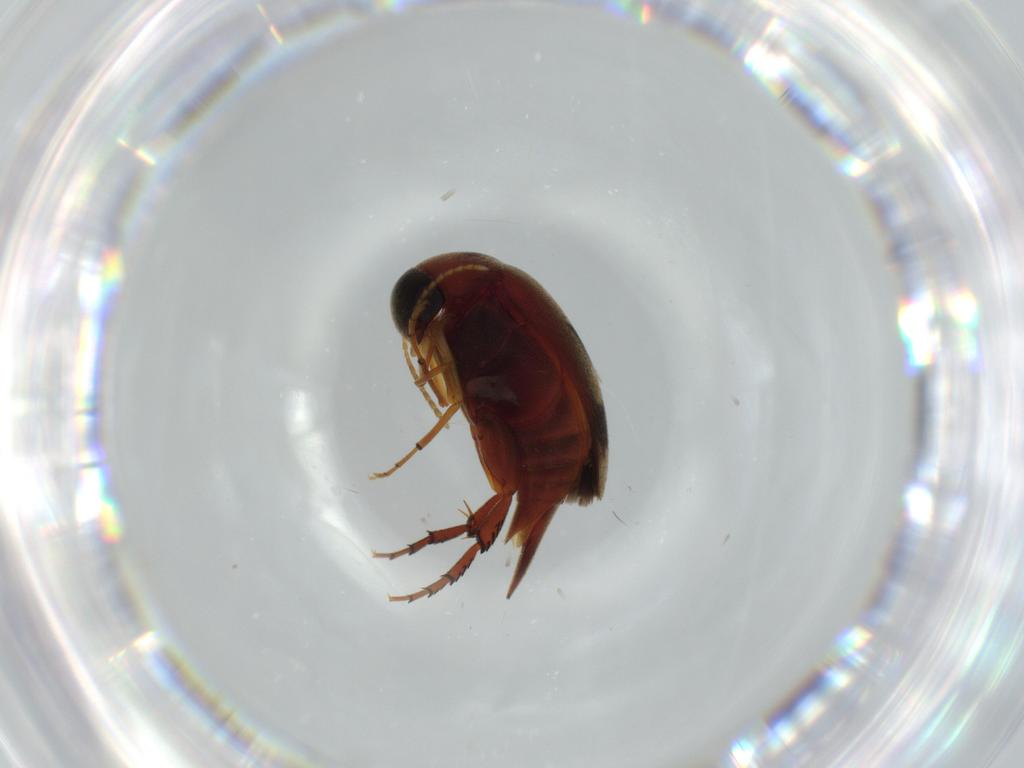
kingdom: Animalia
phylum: Arthropoda
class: Insecta
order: Coleoptera
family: Chrysomelidae
